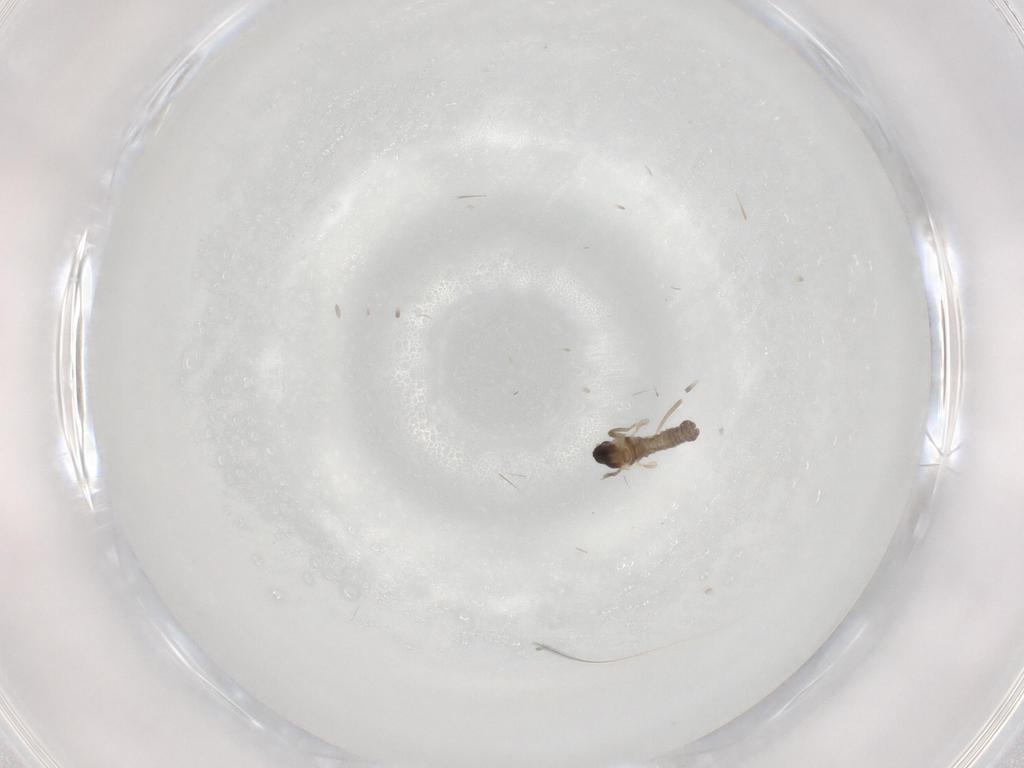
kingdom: Animalia
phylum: Arthropoda
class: Insecta
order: Diptera
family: Cecidomyiidae
